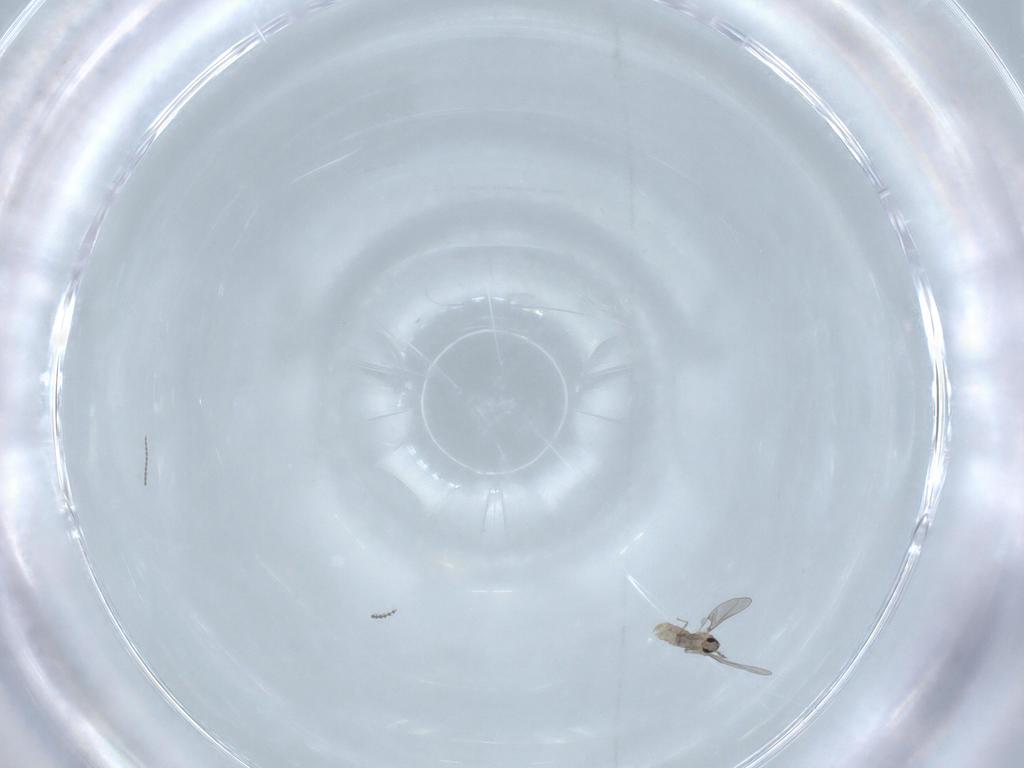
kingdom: Animalia
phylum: Arthropoda
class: Insecta
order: Diptera
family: Cecidomyiidae
